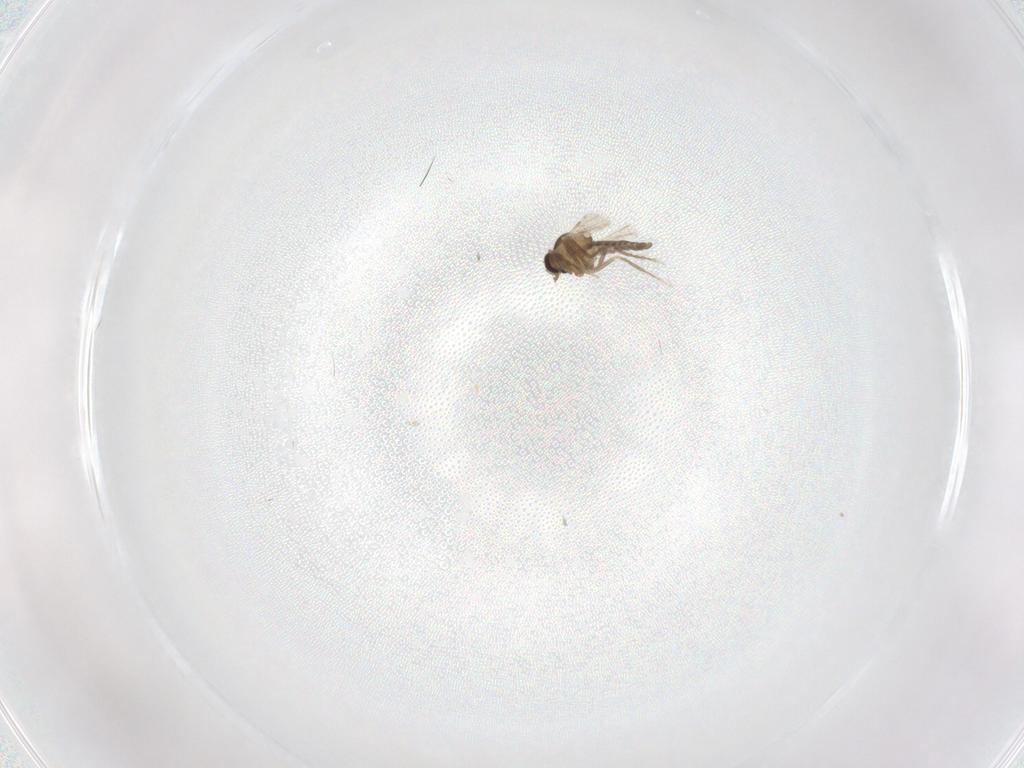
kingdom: Animalia
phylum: Arthropoda
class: Insecta
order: Diptera
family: Ceratopogonidae
